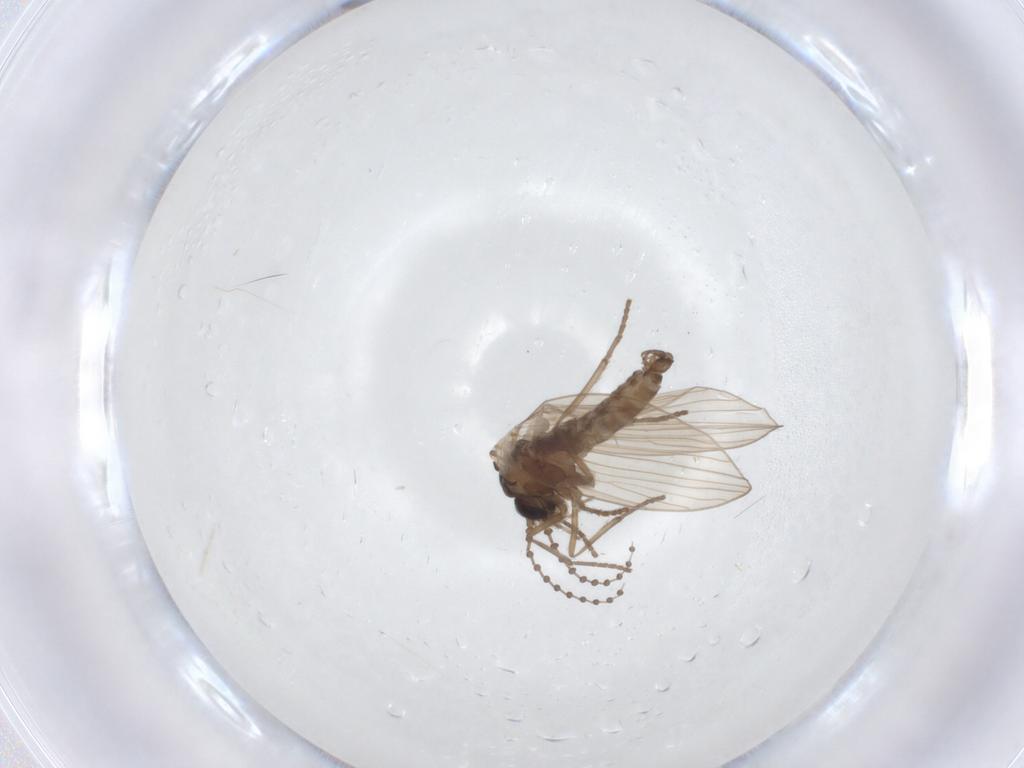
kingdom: Animalia
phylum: Arthropoda
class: Insecta
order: Diptera
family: Psychodidae
